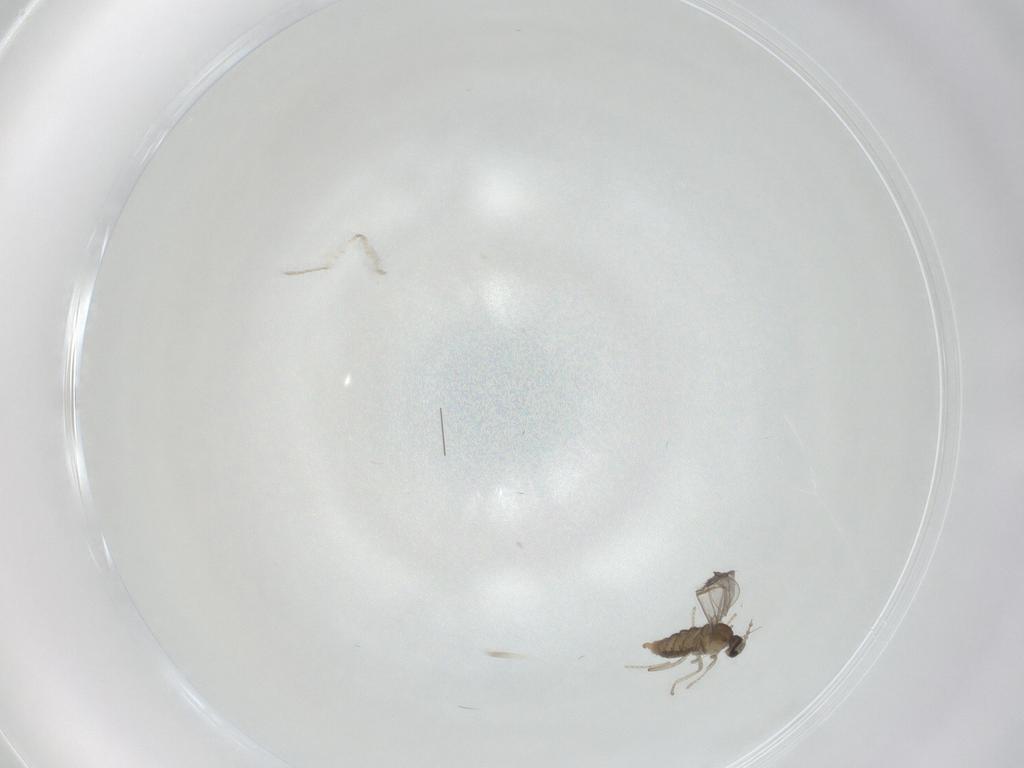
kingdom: Animalia
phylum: Arthropoda
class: Insecta
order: Diptera
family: Cecidomyiidae
